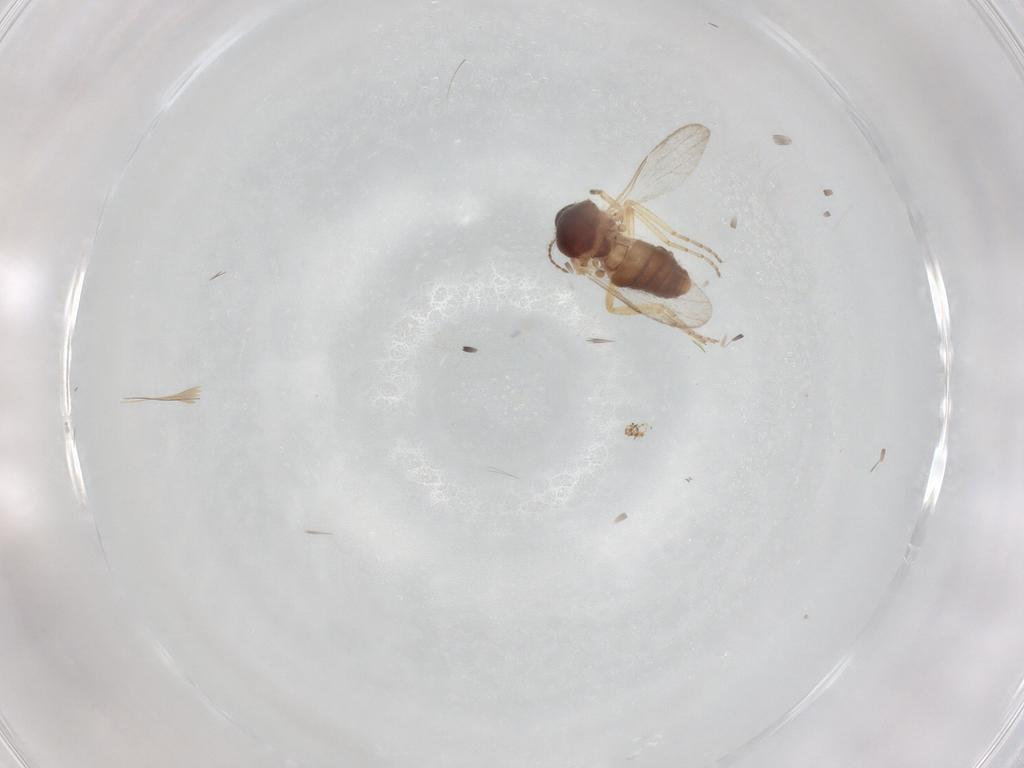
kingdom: Animalia
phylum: Arthropoda
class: Insecta
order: Diptera
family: Ceratopogonidae
